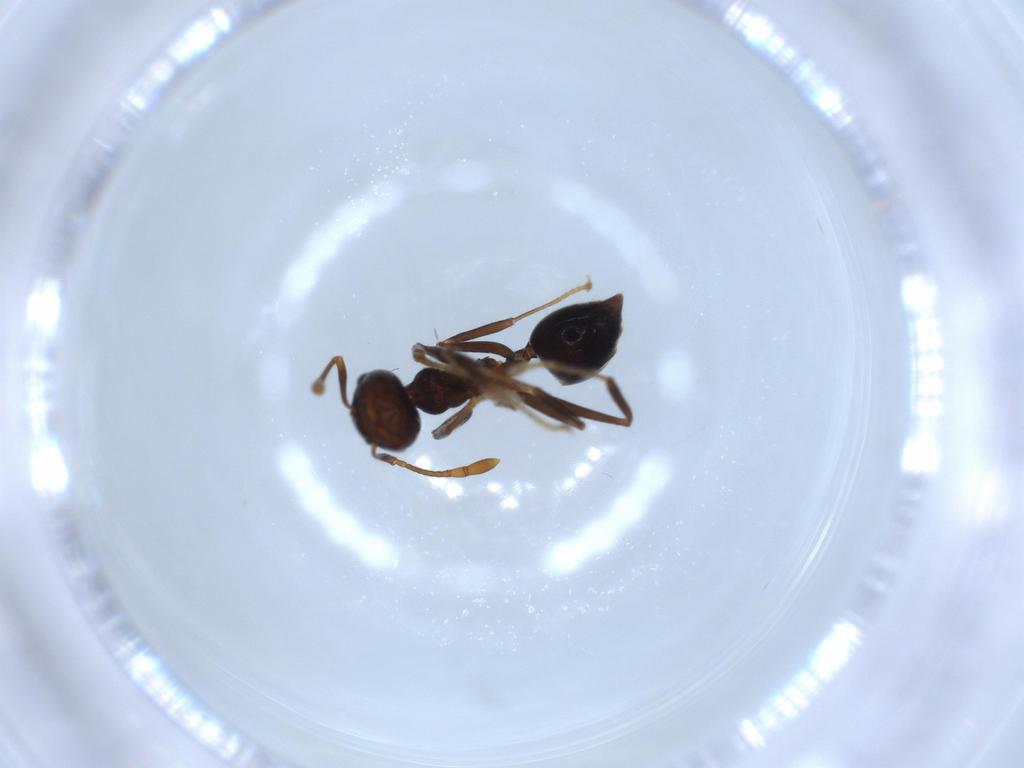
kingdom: Animalia
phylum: Arthropoda
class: Insecta
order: Hymenoptera
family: Formicidae
